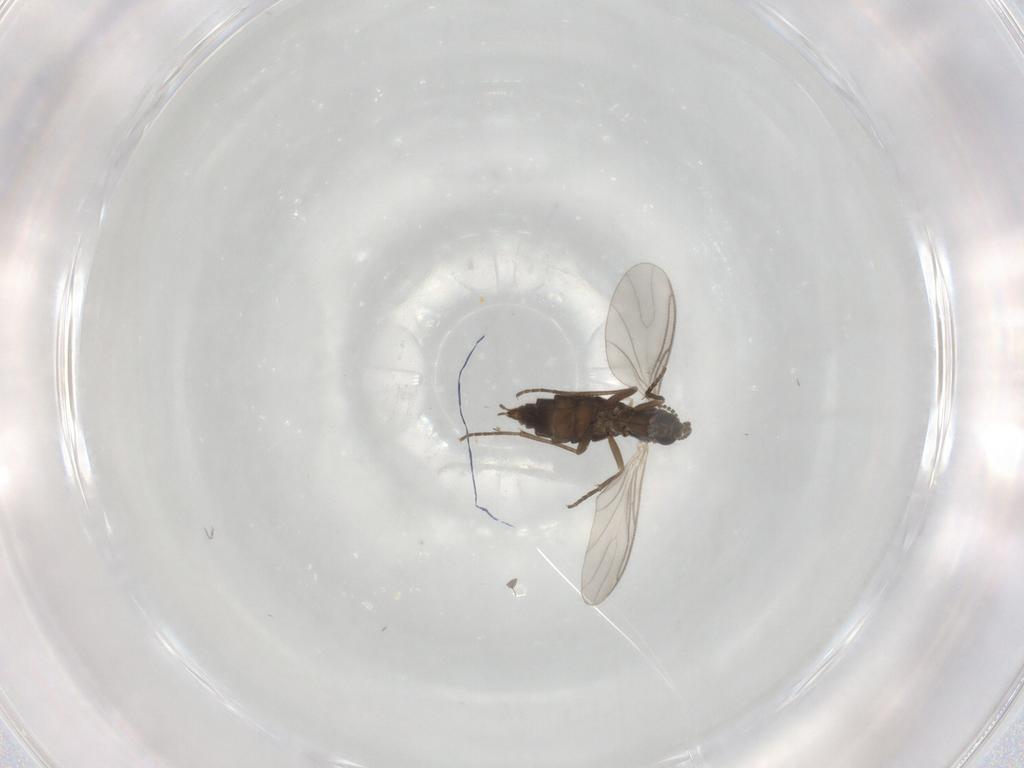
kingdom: Animalia
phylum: Arthropoda
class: Insecta
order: Diptera
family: Sciaridae
